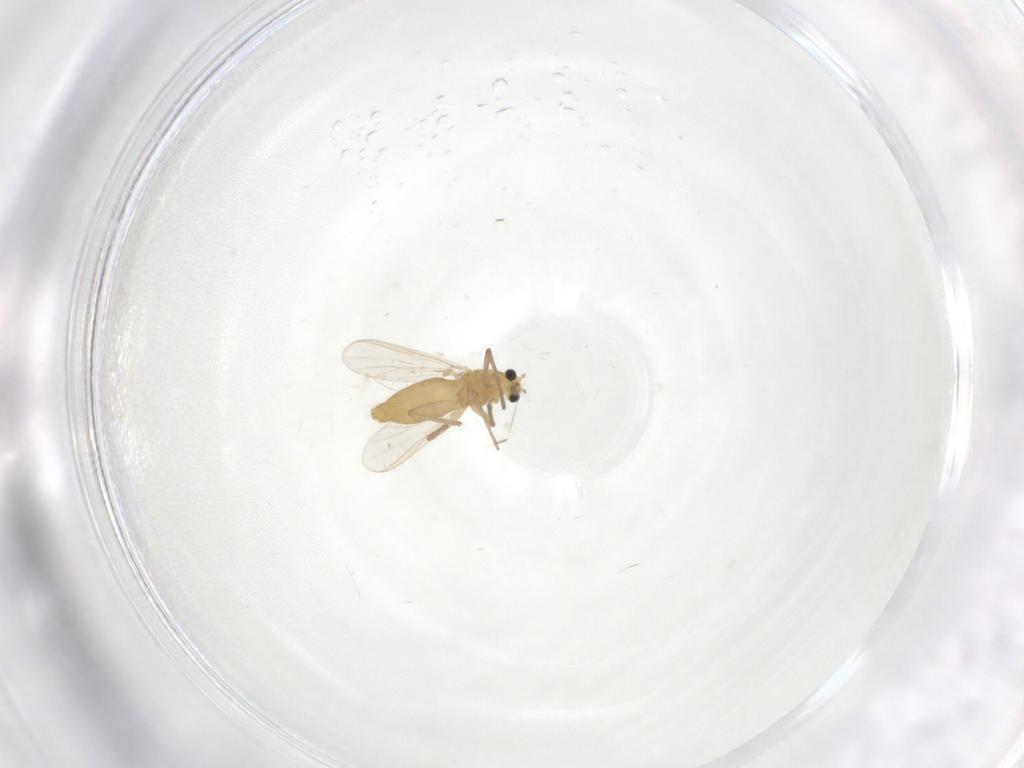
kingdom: Animalia
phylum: Arthropoda
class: Insecta
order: Diptera
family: Chironomidae
